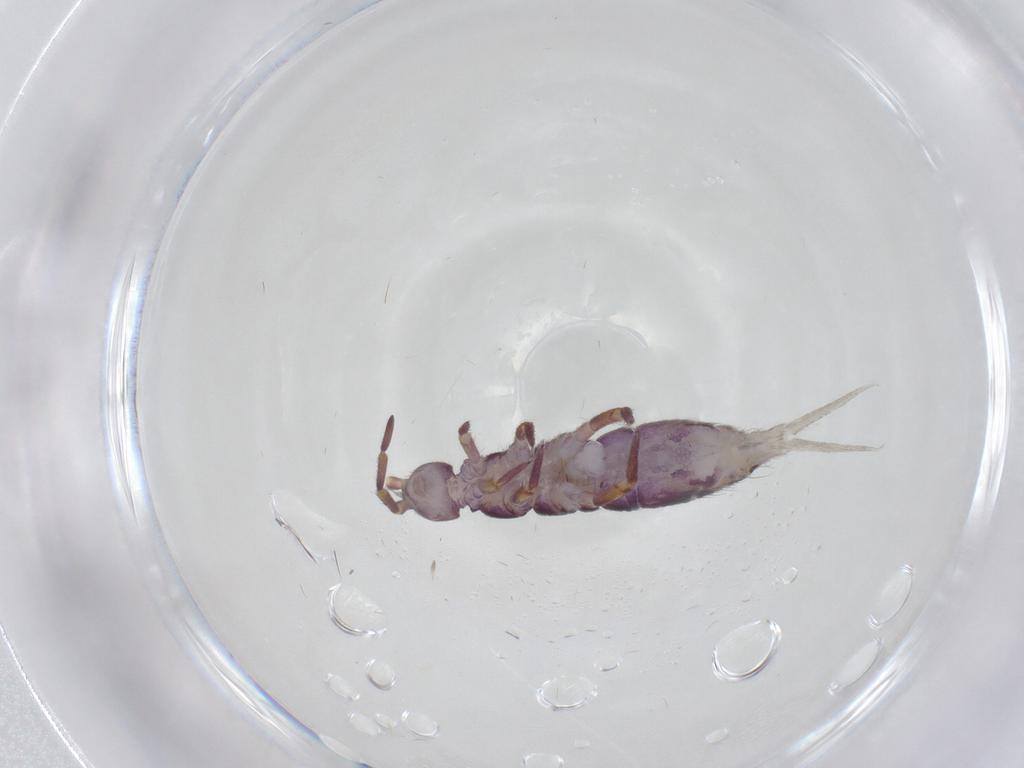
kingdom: Animalia
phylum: Arthropoda
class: Collembola
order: Entomobryomorpha
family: Isotomidae
